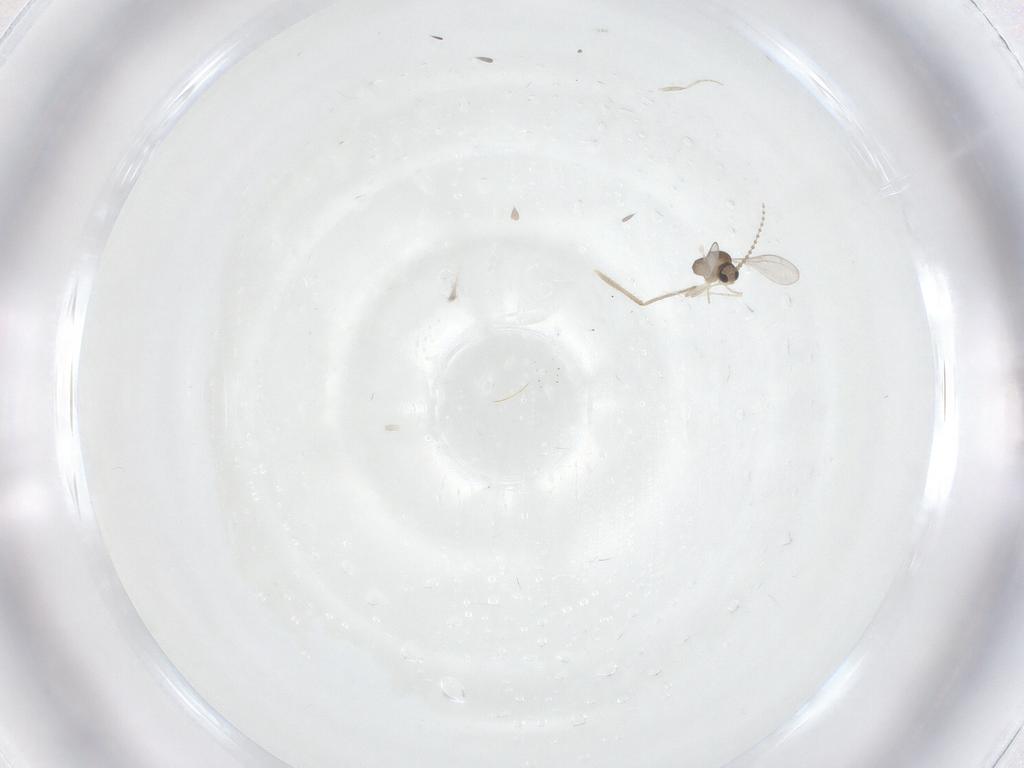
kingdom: Animalia
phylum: Arthropoda
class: Insecta
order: Diptera
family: Cecidomyiidae
